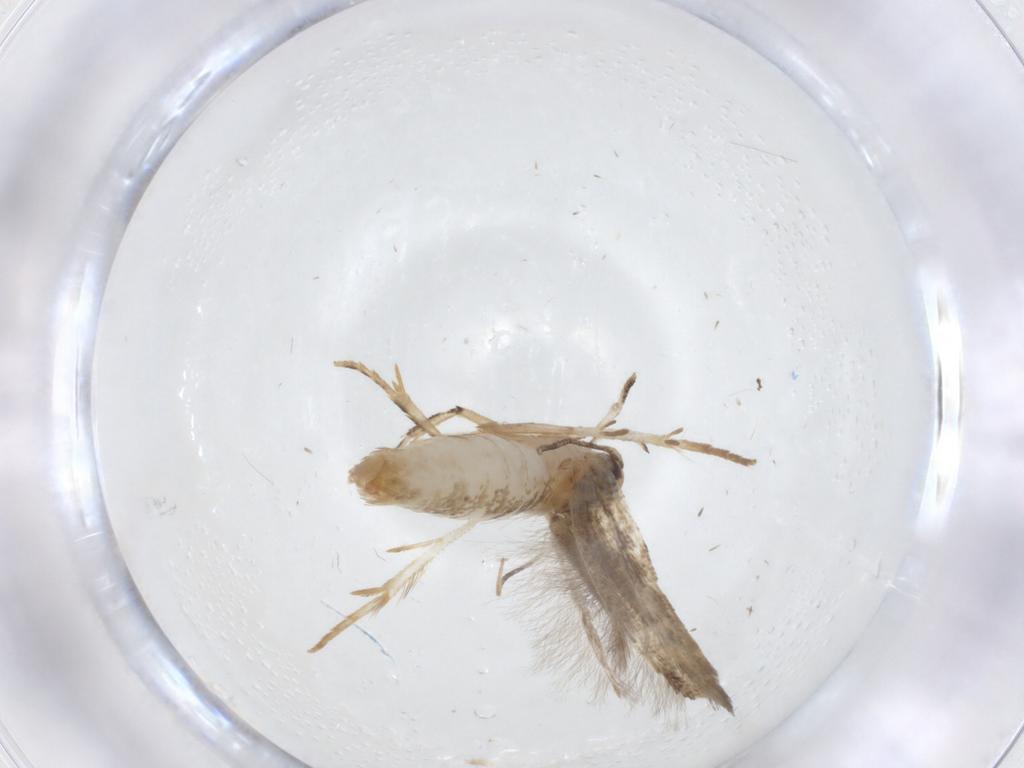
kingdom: Animalia
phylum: Arthropoda
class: Insecta
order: Lepidoptera
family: Gelechiidae
